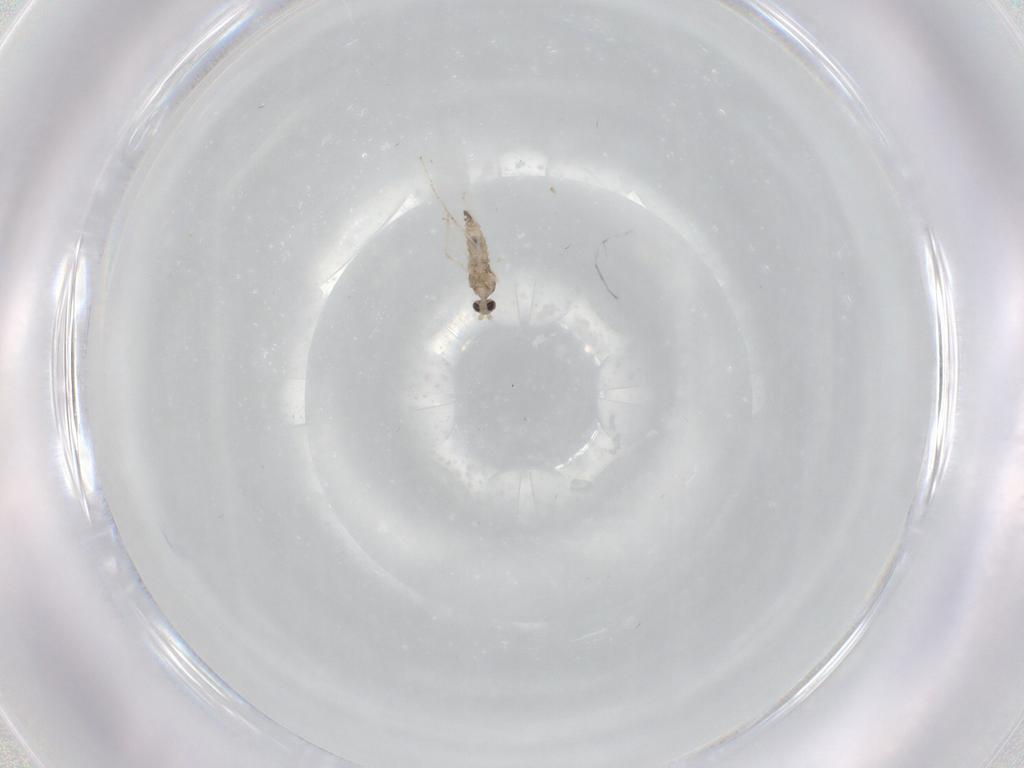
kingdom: Animalia
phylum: Arthropoda
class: Insecta
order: Diptera
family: Cecidomyiidae
